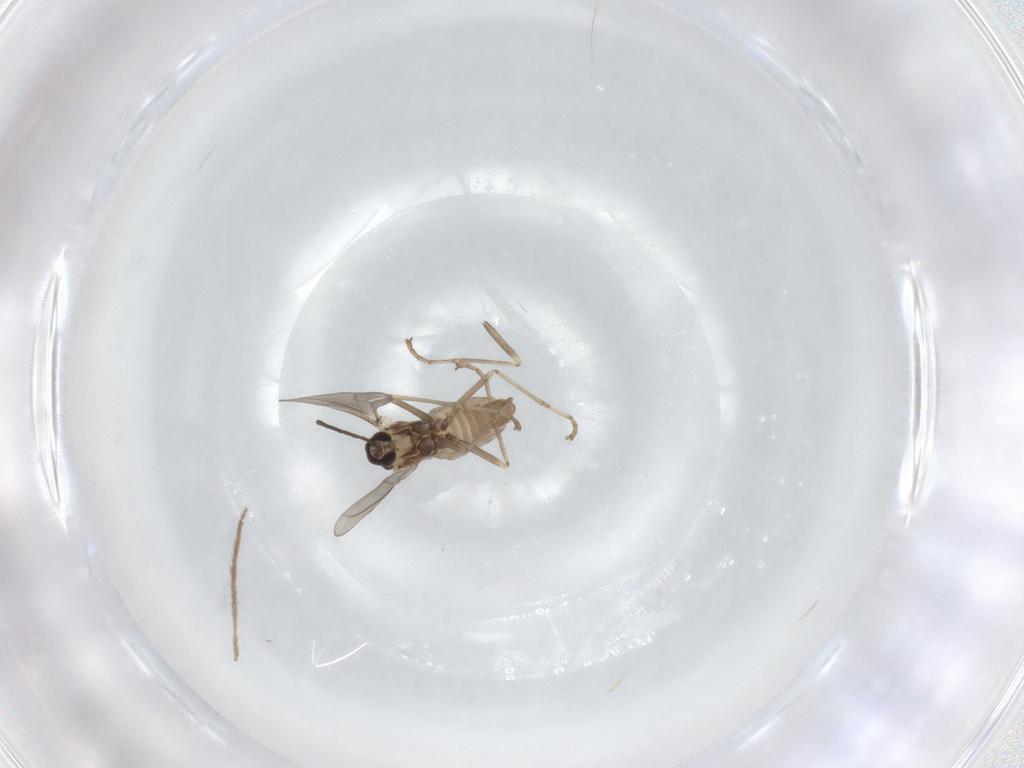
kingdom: Animalia
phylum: Arthropoda
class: Insecta
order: Diptera
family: Cecidomyiidae
